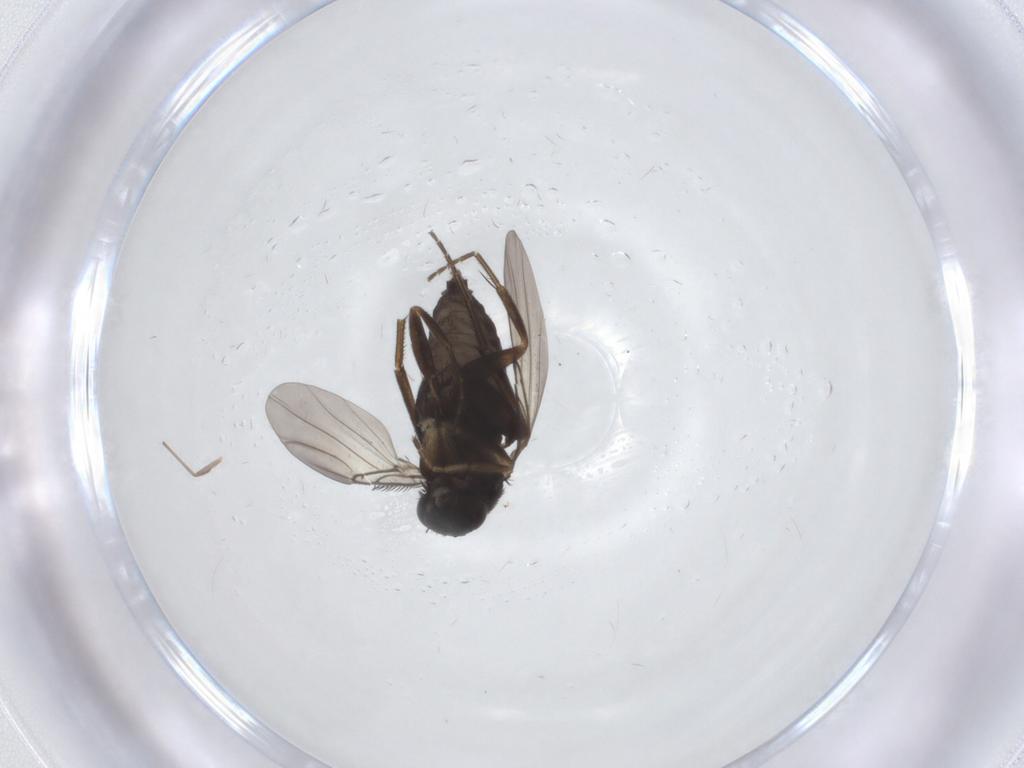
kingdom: Animalia
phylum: Arthropoda
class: Insecta
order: Diptera
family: Phoridae
